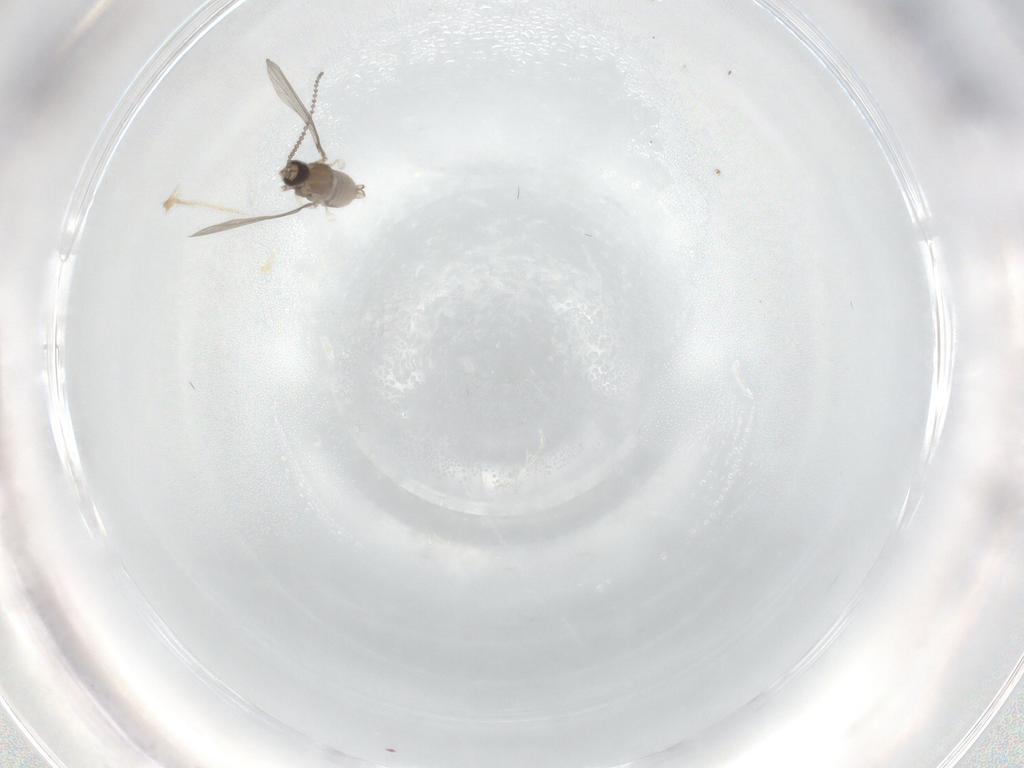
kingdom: Animalia
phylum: Arthropoda
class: Insecta
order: Diptera
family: Cecidomyiidae
